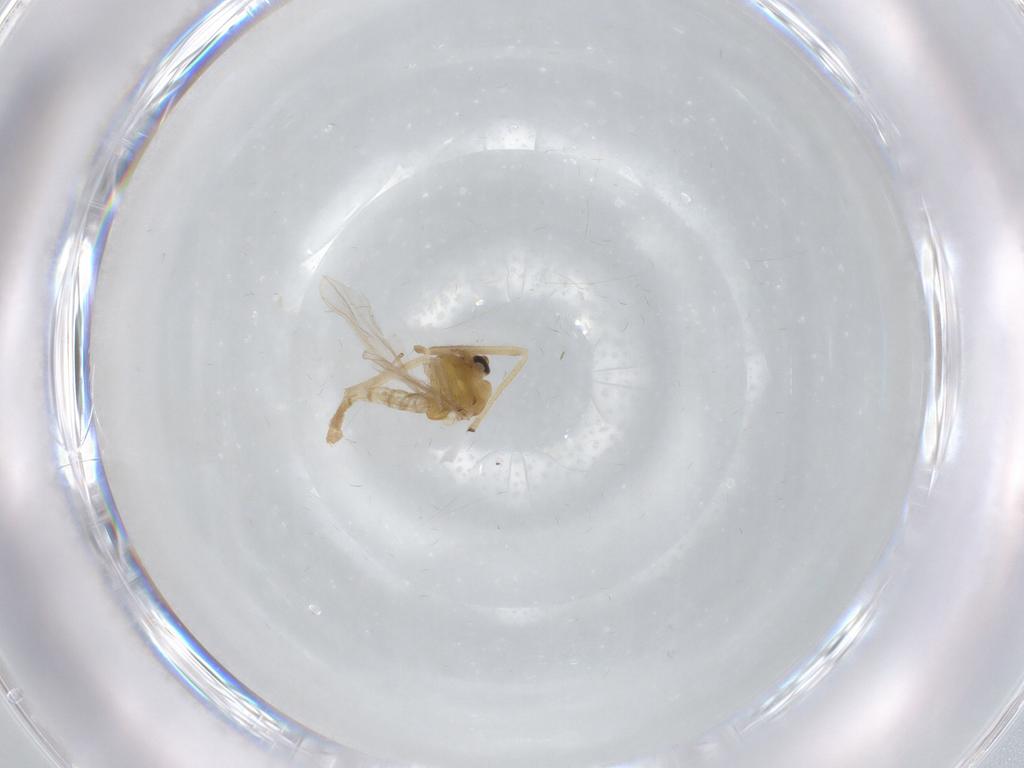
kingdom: Animalia
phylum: Arthropoda
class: Insecta
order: Diptera
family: Chironomidae
